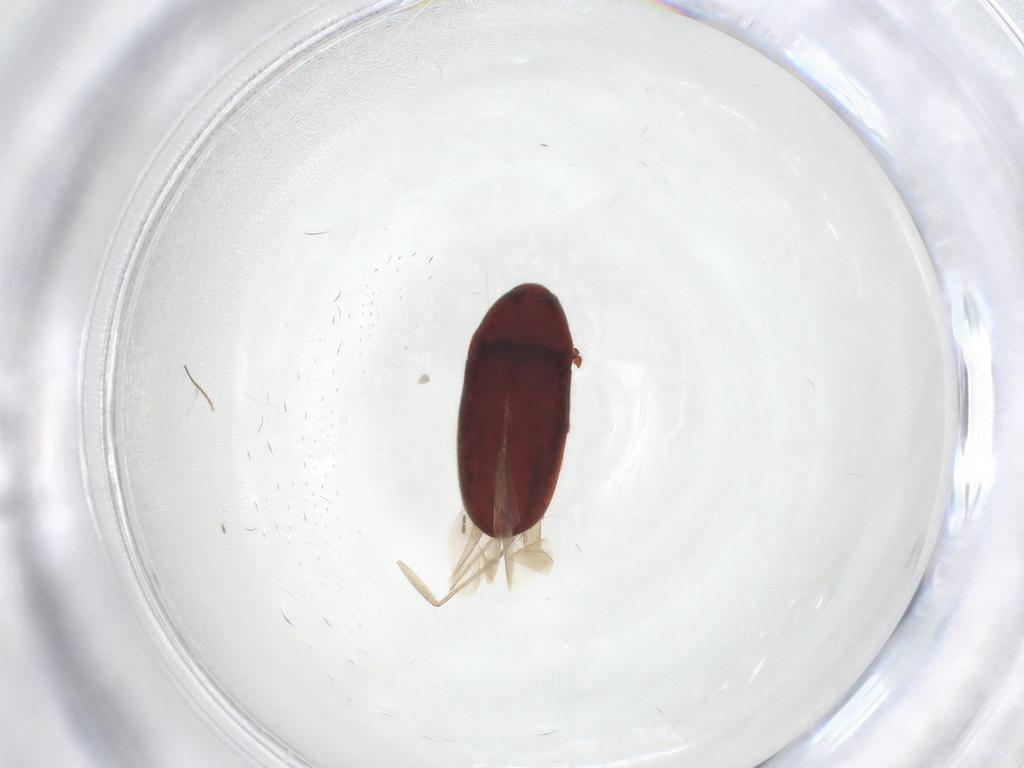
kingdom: Animalia
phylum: Arthropoda
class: Insecta
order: Coleoptera
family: Throscidae
